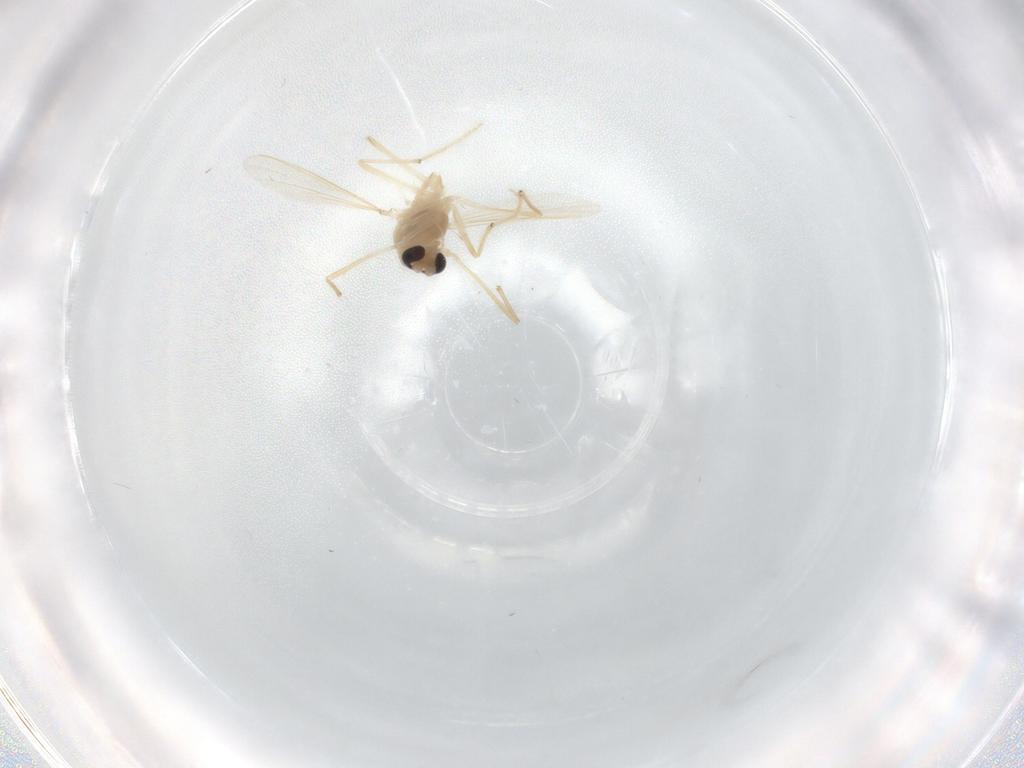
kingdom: Animalia
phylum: Arthropoda
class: Insecta
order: Diptera
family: Chironomidae
